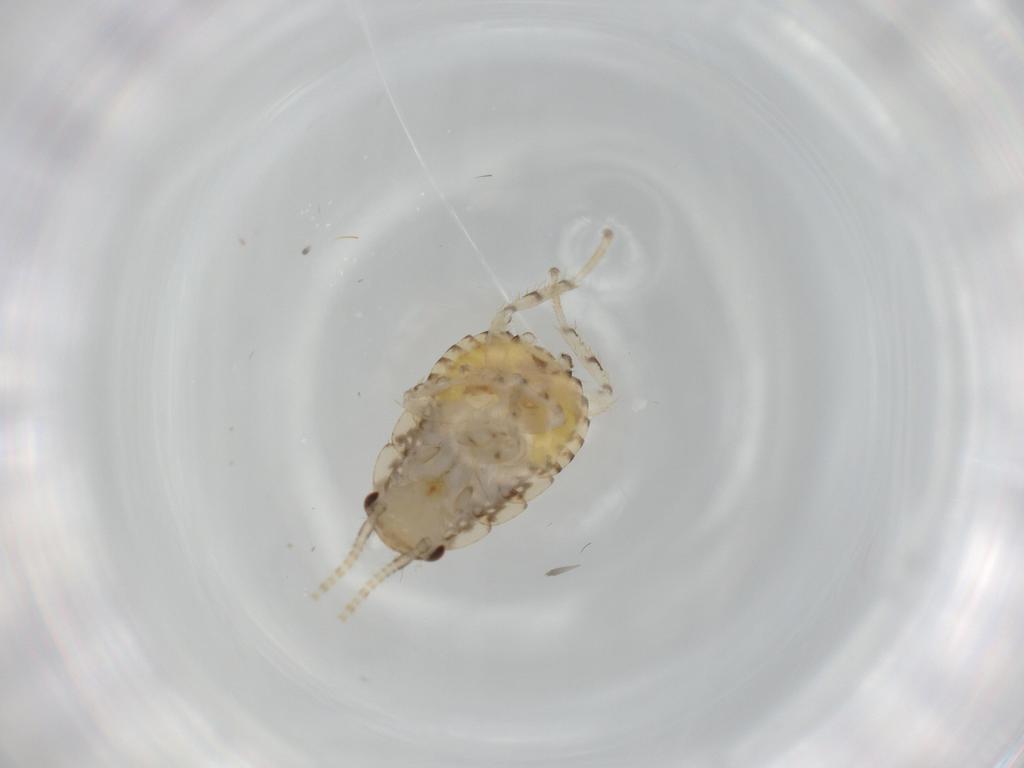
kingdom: Animalia
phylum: Arthropoda
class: Insecta
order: Blattodea
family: Ectobiidae
